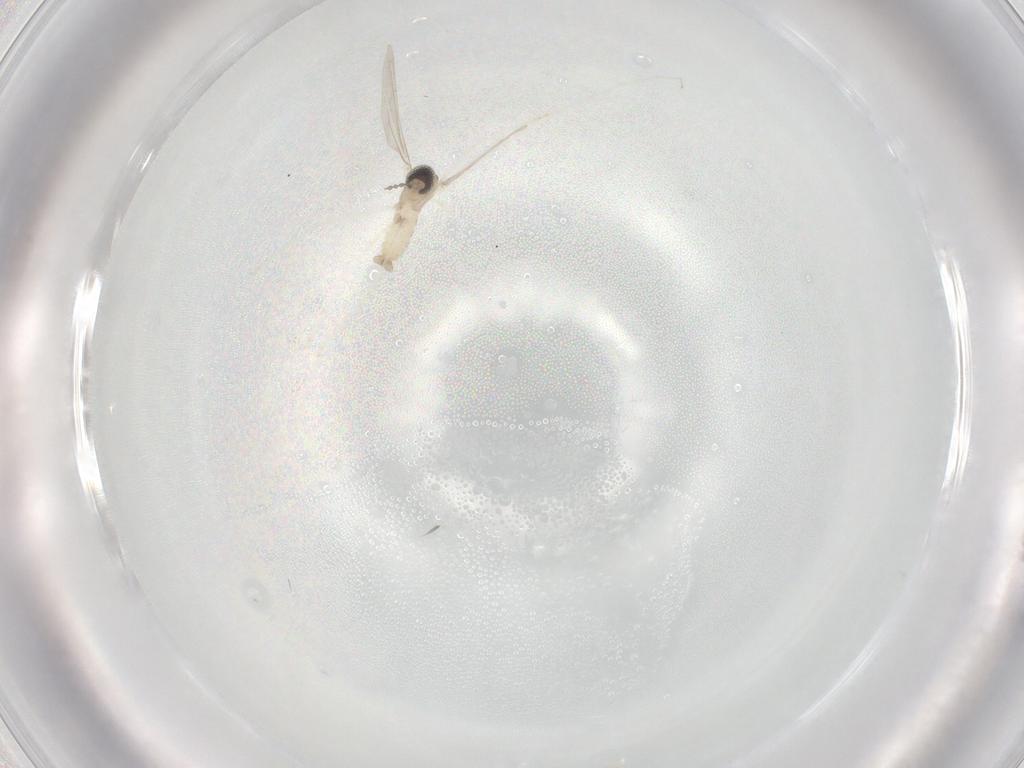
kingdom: Animalia
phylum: Arthropoda
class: Insecta
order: Diptera
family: Cecidomyiidae
